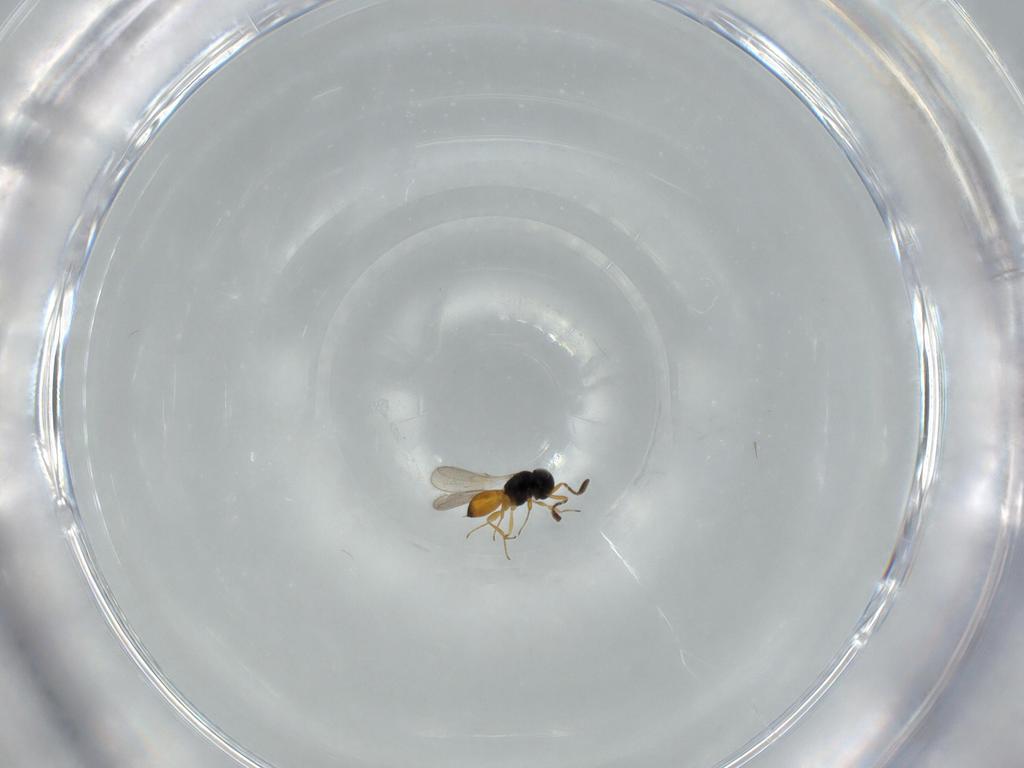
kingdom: Animalia
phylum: Arthropoda
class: Insecta
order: Hymenoptera
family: Scelionidae
